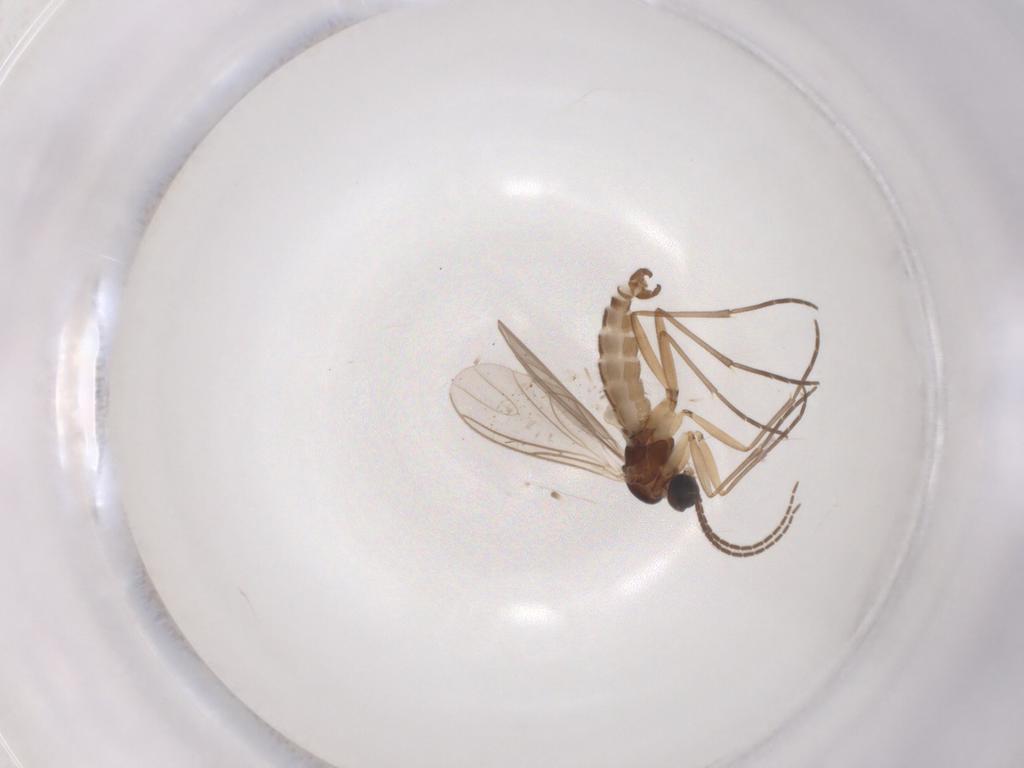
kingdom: Animalia
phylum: Arthropoda
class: Insecta
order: Diptera
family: Sciaridae
